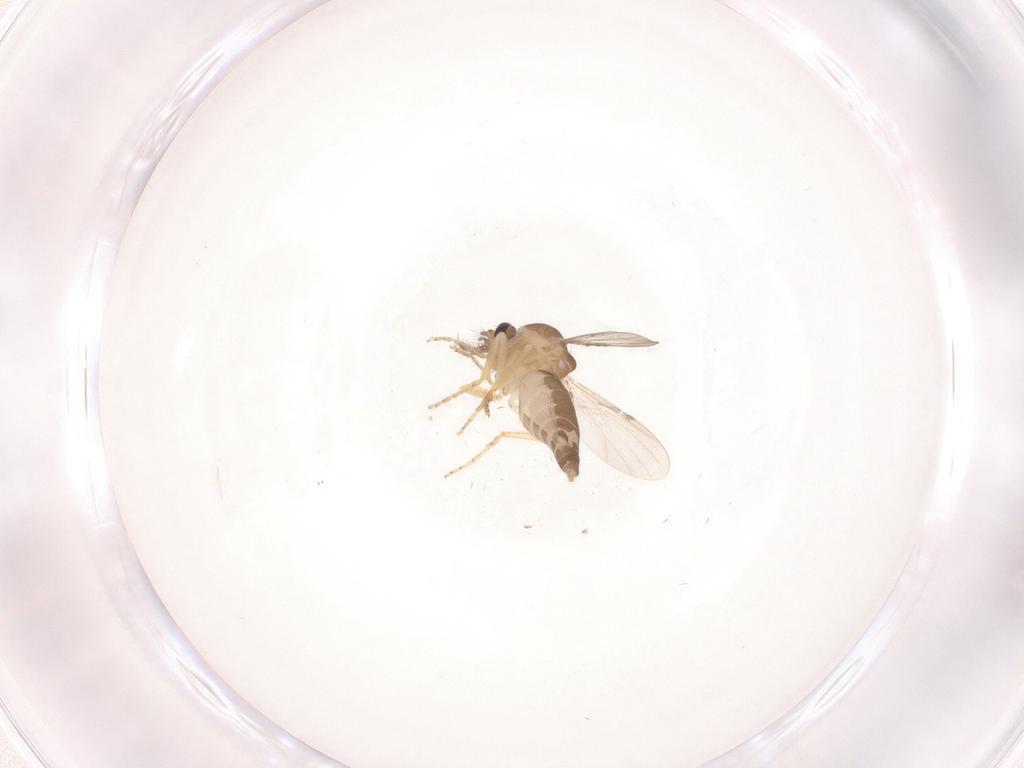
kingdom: Animalia
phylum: Arthropoda
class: Insecta
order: Diptera
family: Ceratopogonidae
